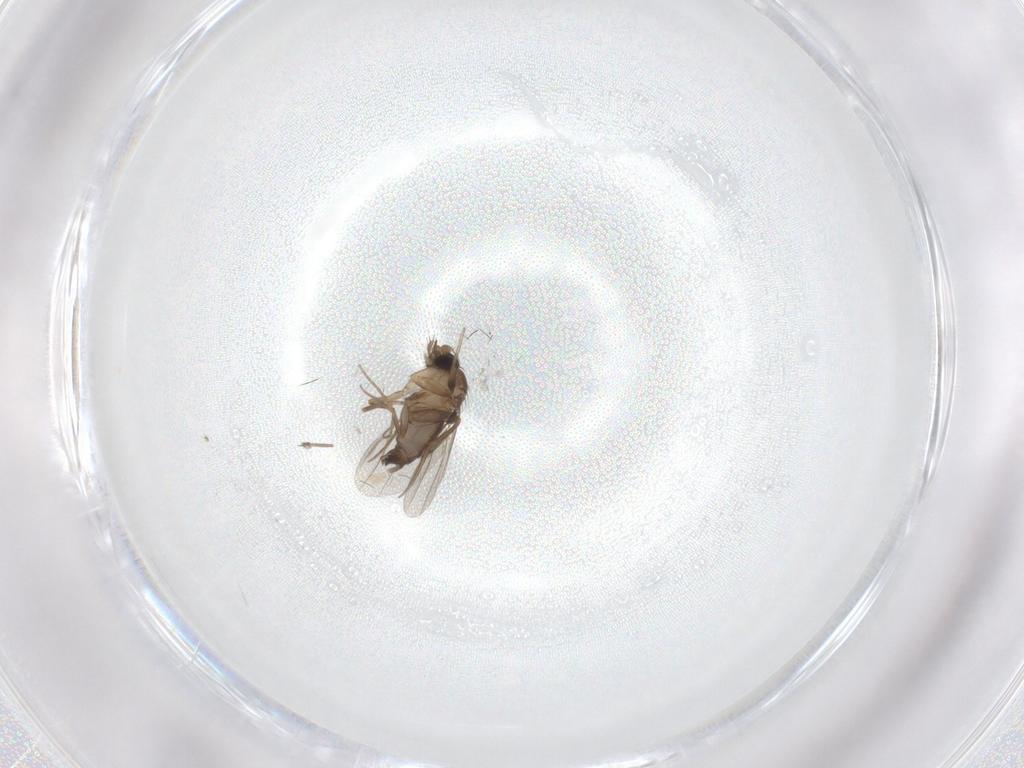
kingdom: Animalia
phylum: Arthropoda
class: Insecta
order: Diptera
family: Phoridae
